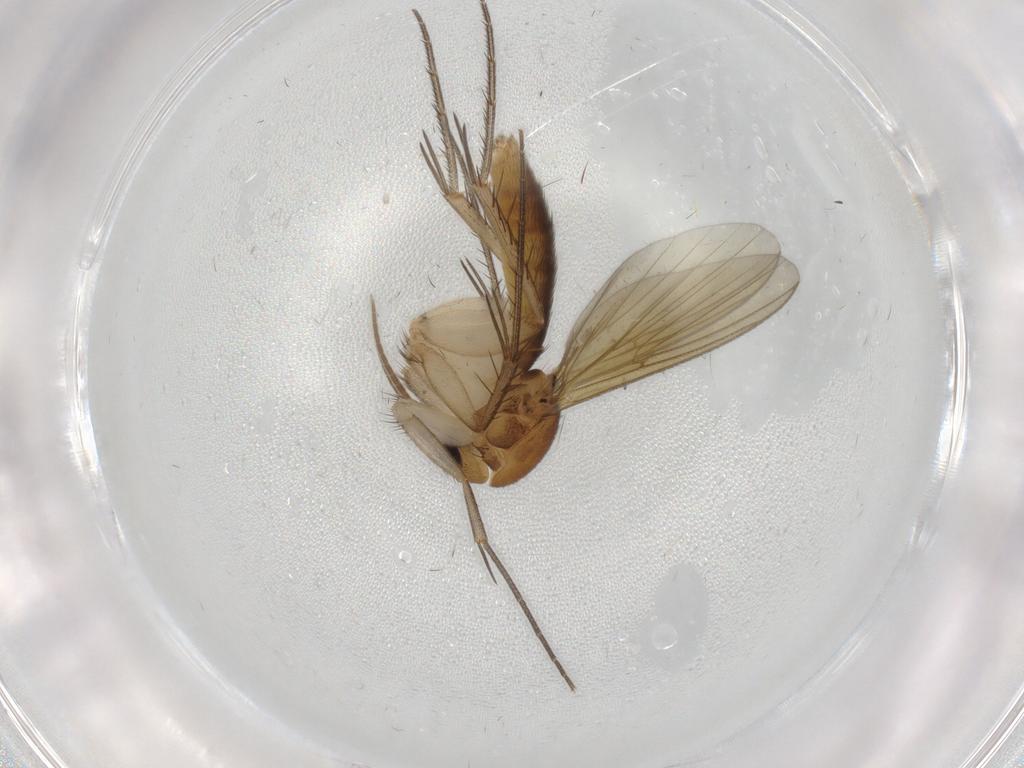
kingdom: Animalia
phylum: Arthropoda
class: Insecta
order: Diptera
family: Mycetophilidae
